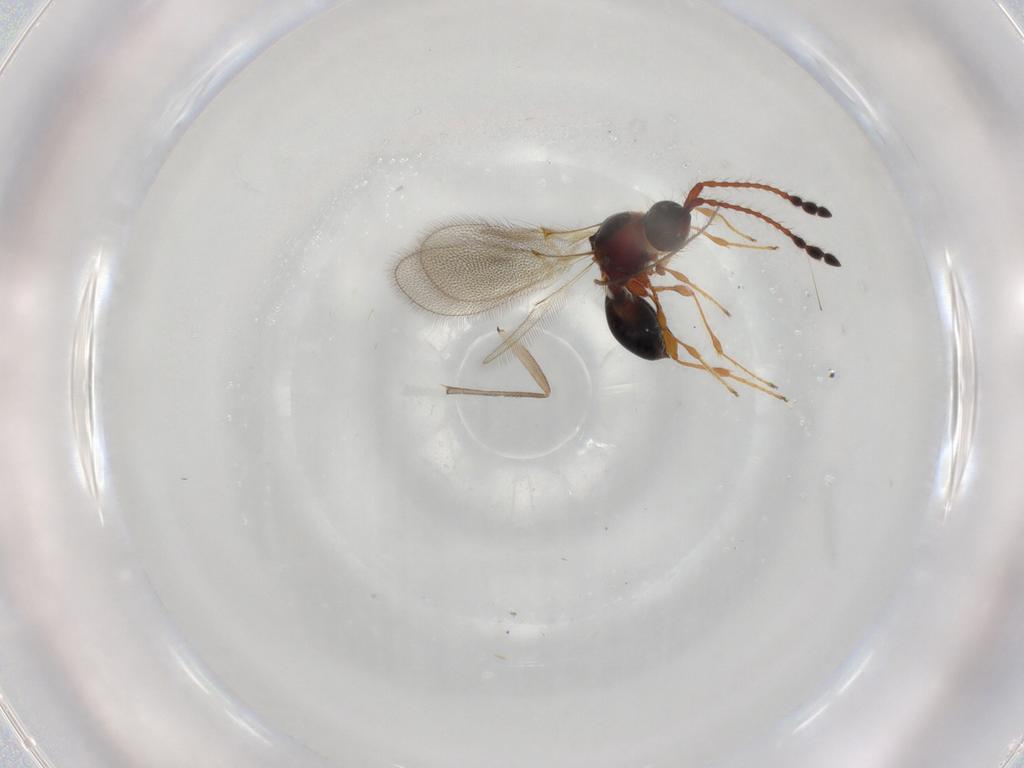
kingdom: Animalia
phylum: Arthropoda
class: Insecta
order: Hymenoptera
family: Diapriidae
